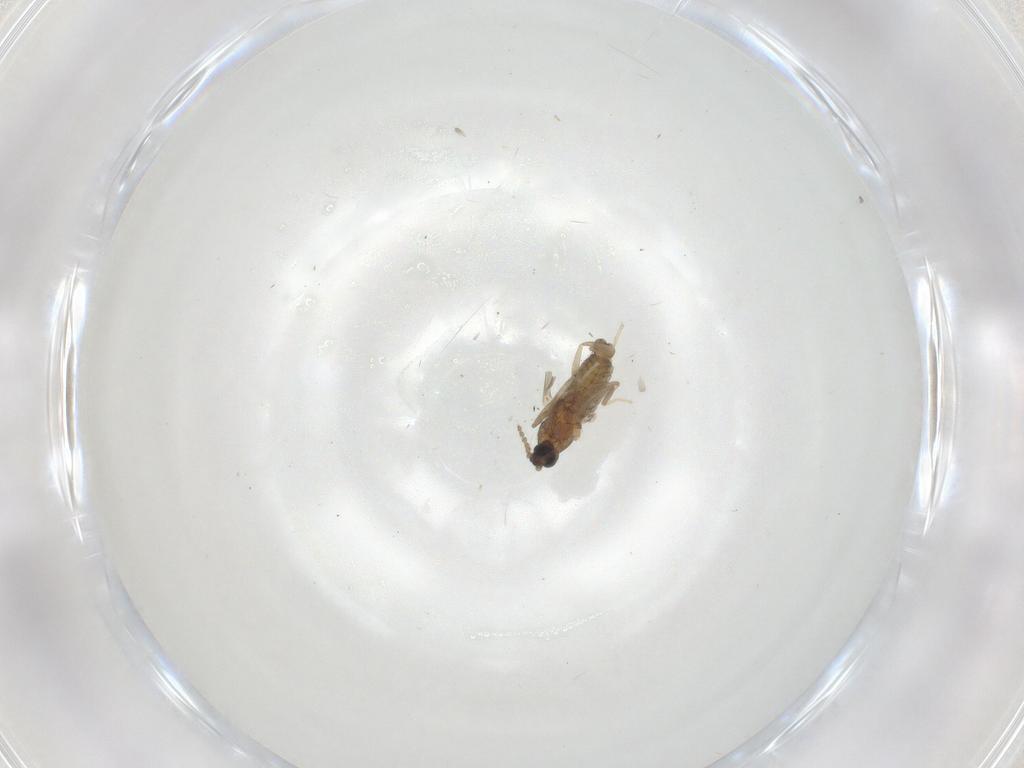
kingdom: Animalia
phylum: Arthropoda
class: Insecta
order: Diptera
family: Cecidomyiidae
